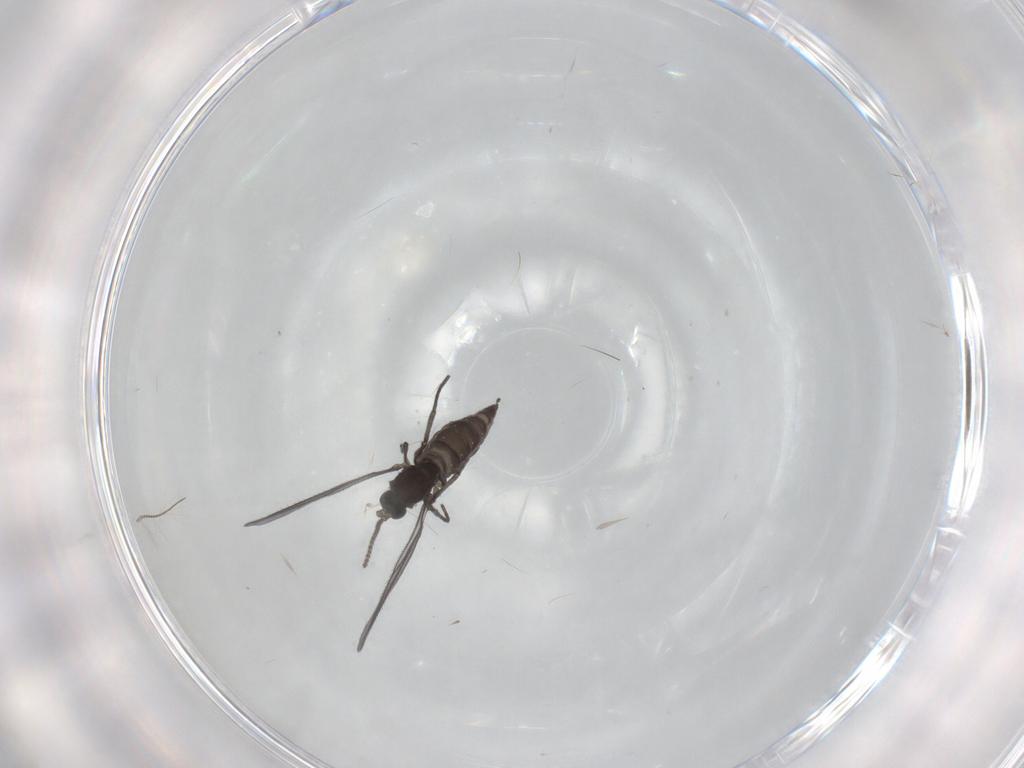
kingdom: Animalia
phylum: Arthropoda
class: Insecta
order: Diptera
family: Chironomidae
